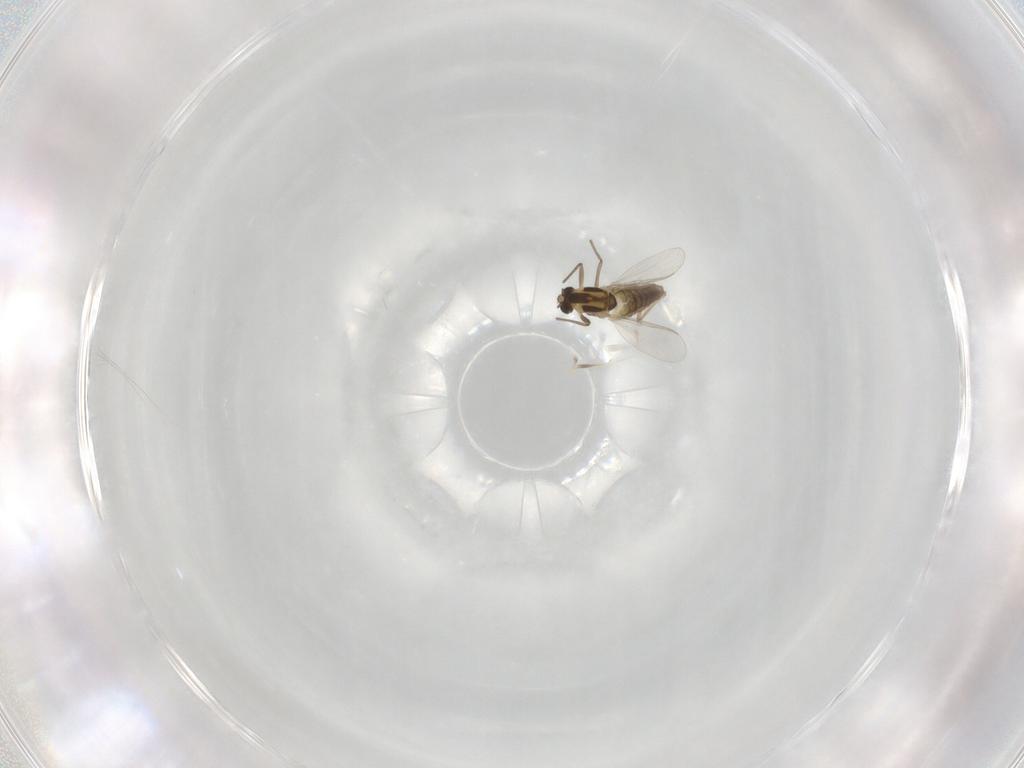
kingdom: Animalia
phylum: Arthropoda
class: Insecta
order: Diptera
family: Chironomidae
